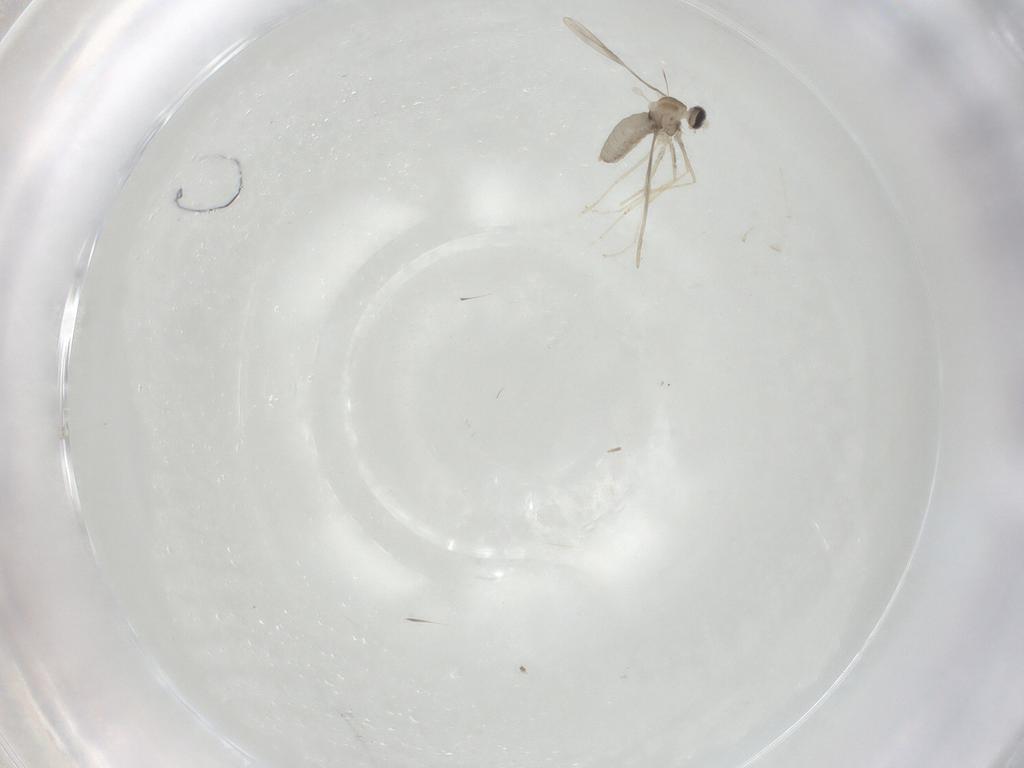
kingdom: Animalia
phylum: Arthropoda
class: Insecta
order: Diptera
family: Cecidomyiidae
